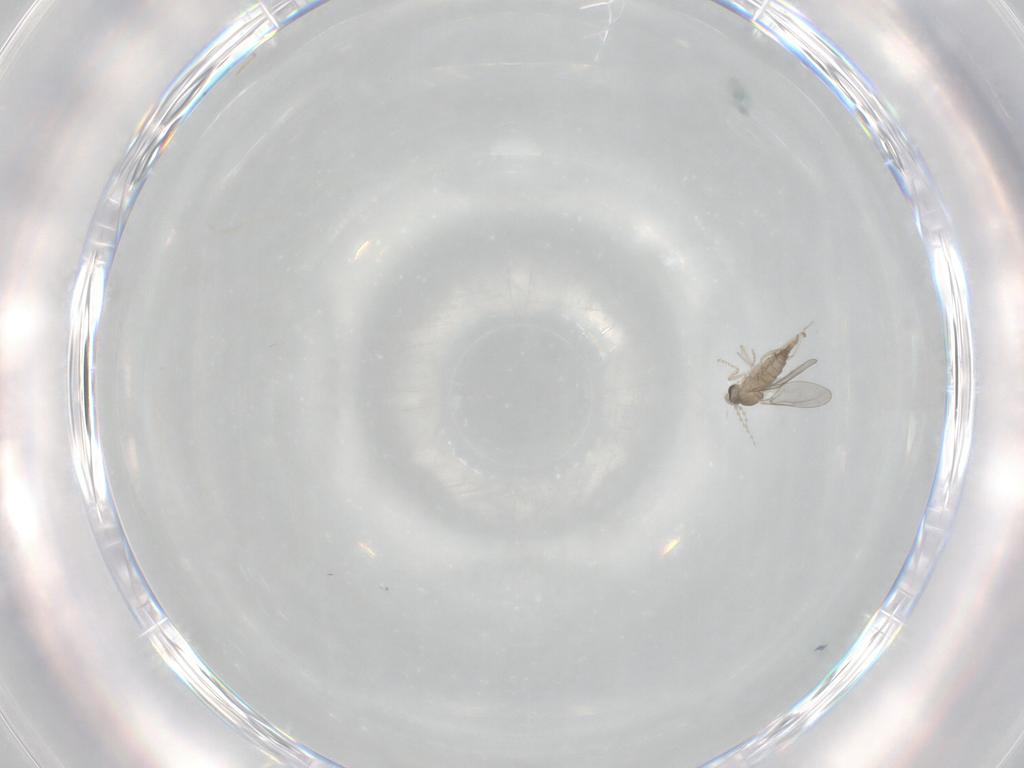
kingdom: Animalia
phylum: Arthropoda
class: Insecta
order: Diptera
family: Cecidomyiidae
